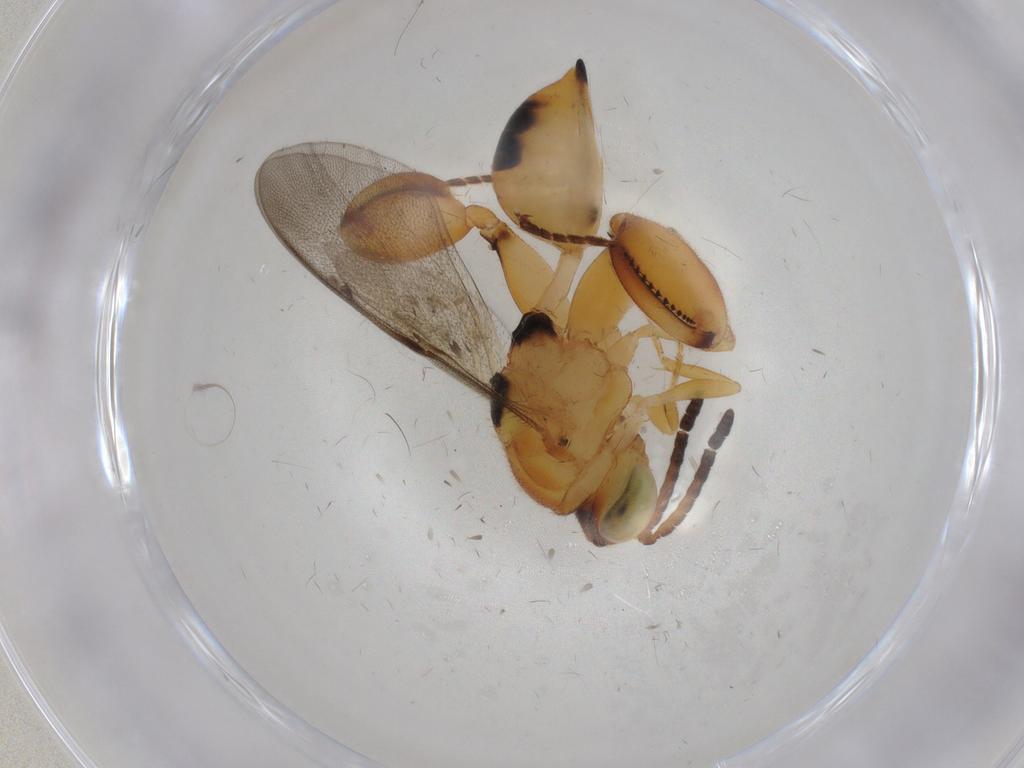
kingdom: Animalia
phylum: Arthropoda
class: Insecta
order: Hymenoptera
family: Chalcididae
